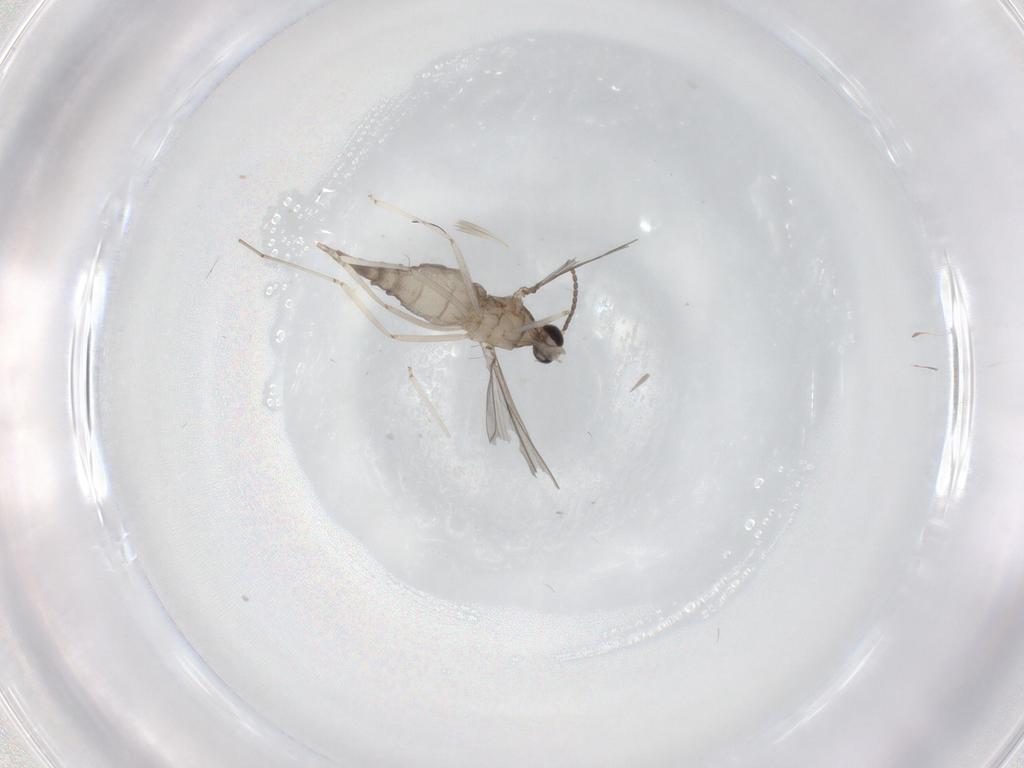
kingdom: Animalia
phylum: Arthropoda
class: Insecta
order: Diptera
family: Cecidomyiidae
